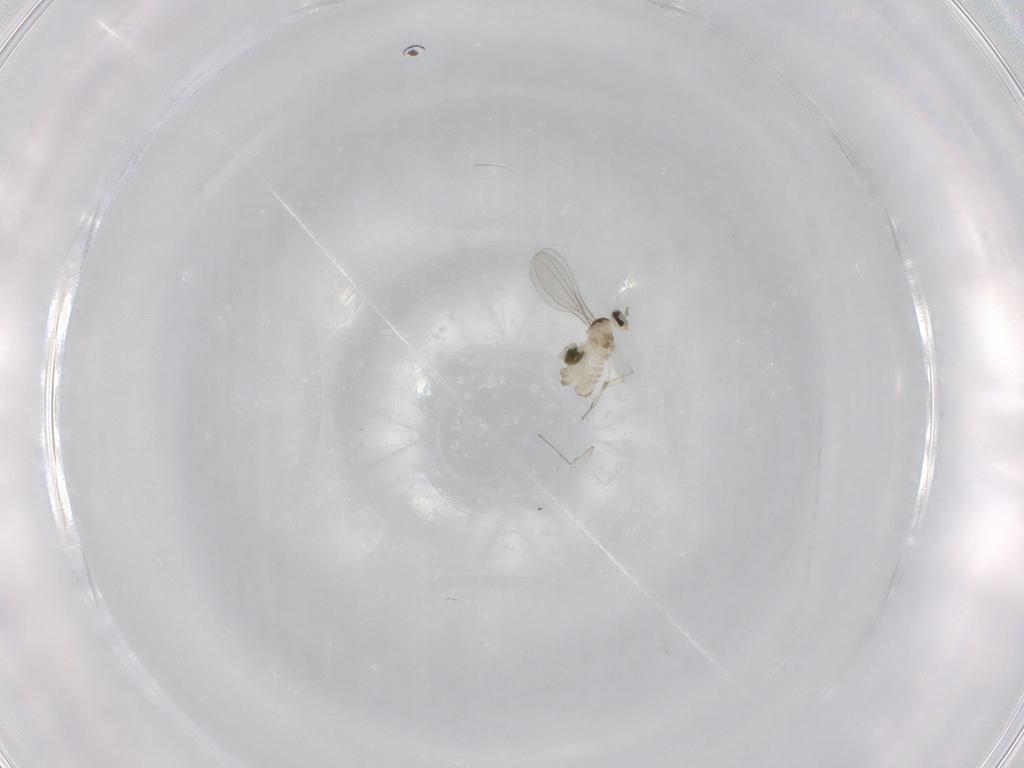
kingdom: Animalia
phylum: Arthropoda
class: Insecta
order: Diptera
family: Cecidomyiidae
